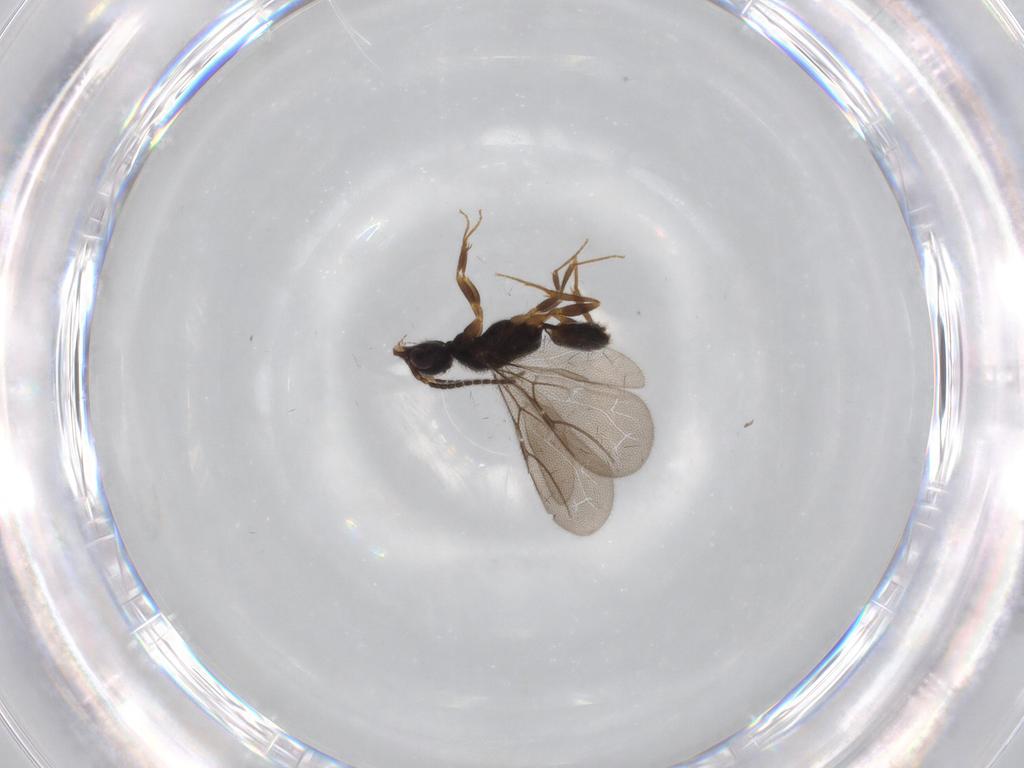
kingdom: Animalia
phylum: Arthropoda
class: Insecta
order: Hymenoptera
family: Bethylidae
